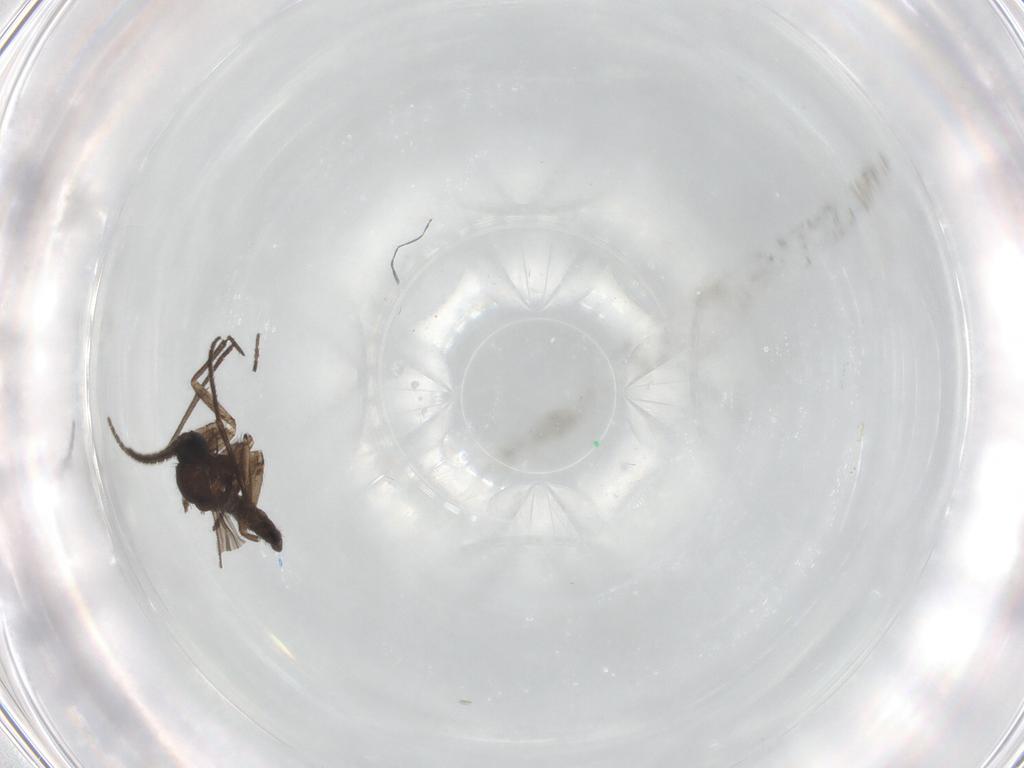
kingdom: Animalia
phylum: Arthropoda
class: Insecta
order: Diptera
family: Sciaridae
